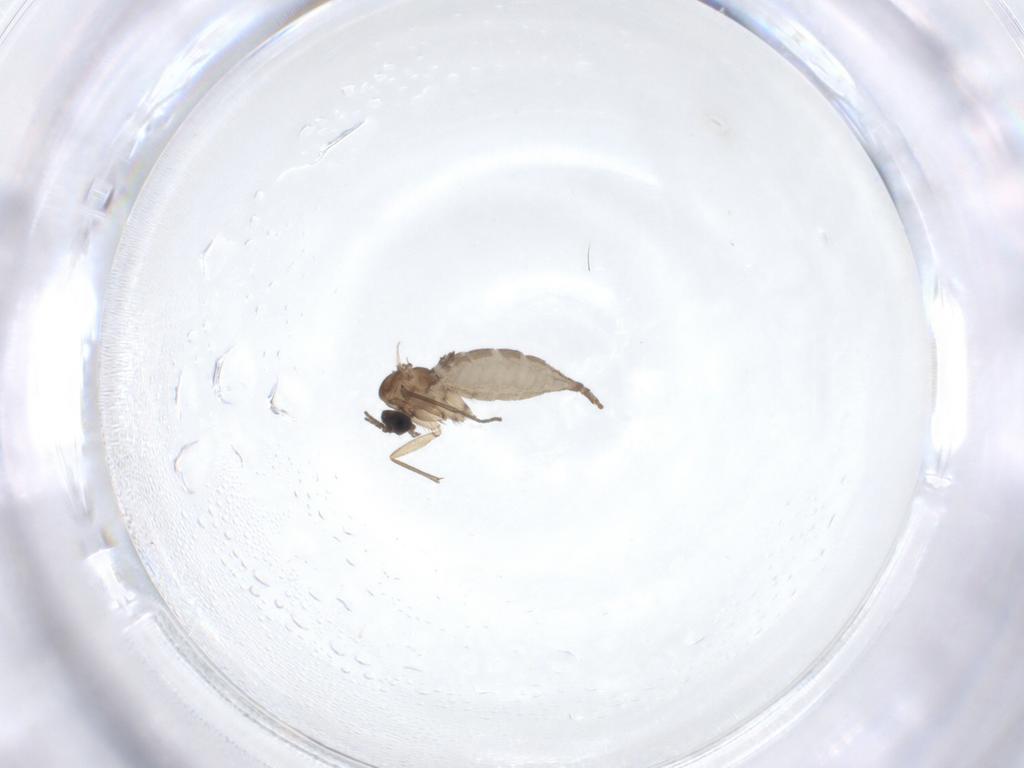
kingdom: Animalia
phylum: Arthropoda
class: Insecta
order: Diptera
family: Sciaridae
